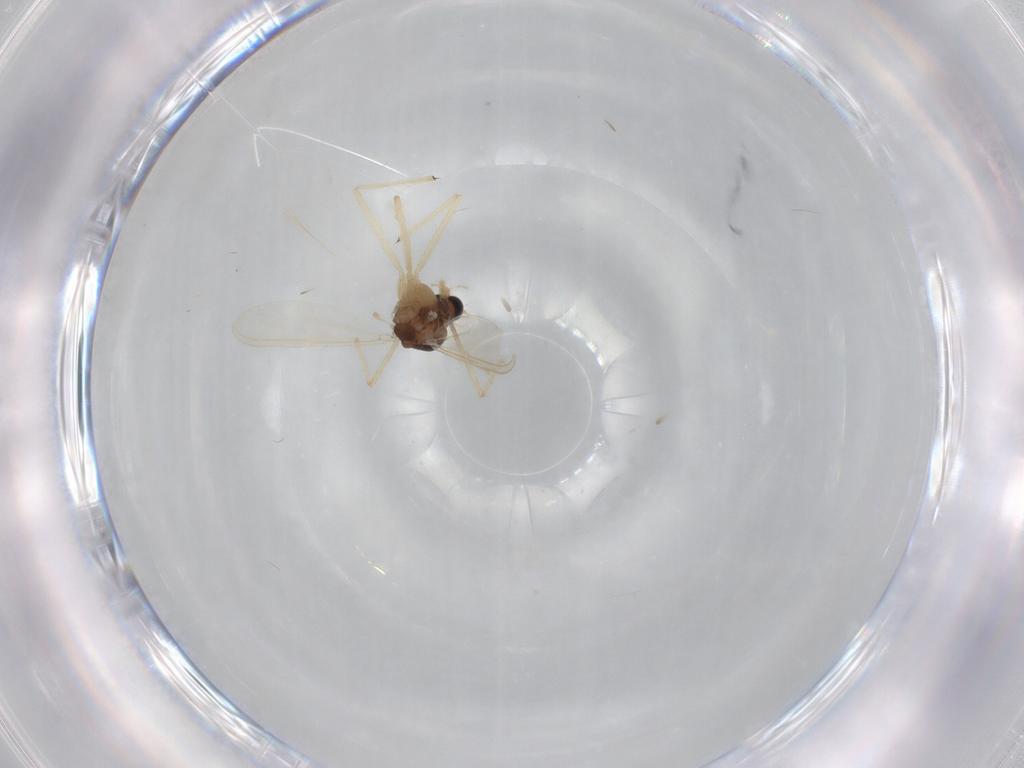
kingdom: Animalia
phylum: Arthropoda
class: Insecta
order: Diptera
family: Chironomidae
